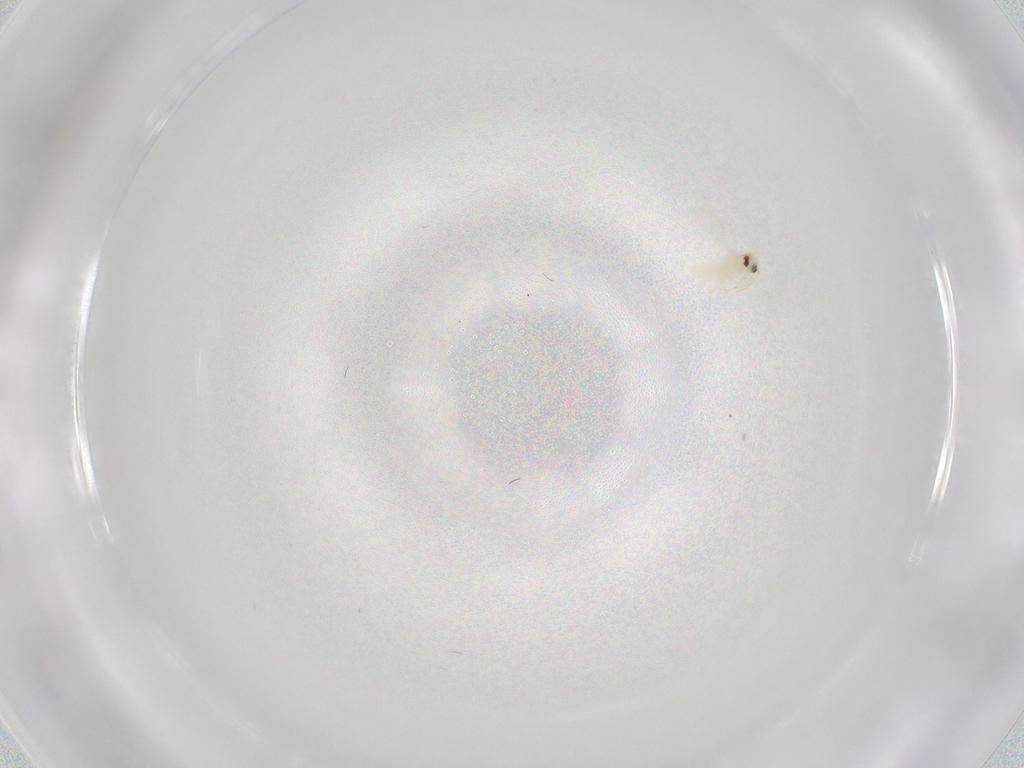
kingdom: Animalia
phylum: Arthropoda
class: Insecta
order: Hemiptera
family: Aleyrodidae
